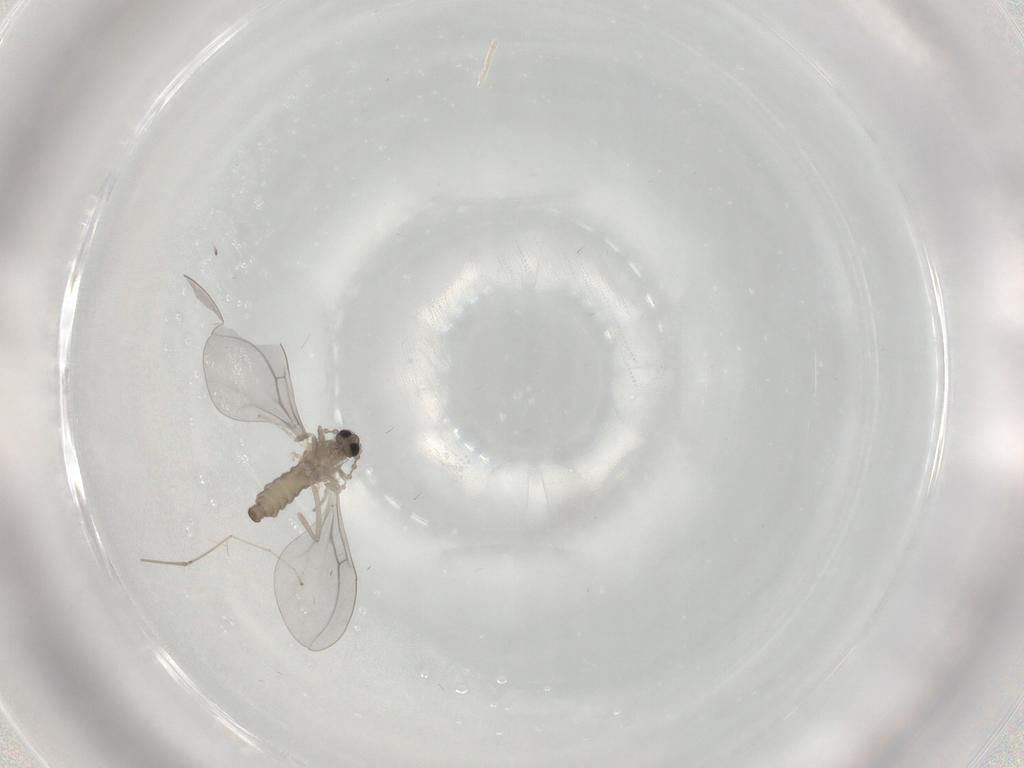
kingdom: Animalia
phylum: Arthropoda
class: Insecta
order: Diptera
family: Cecidomyiidae
